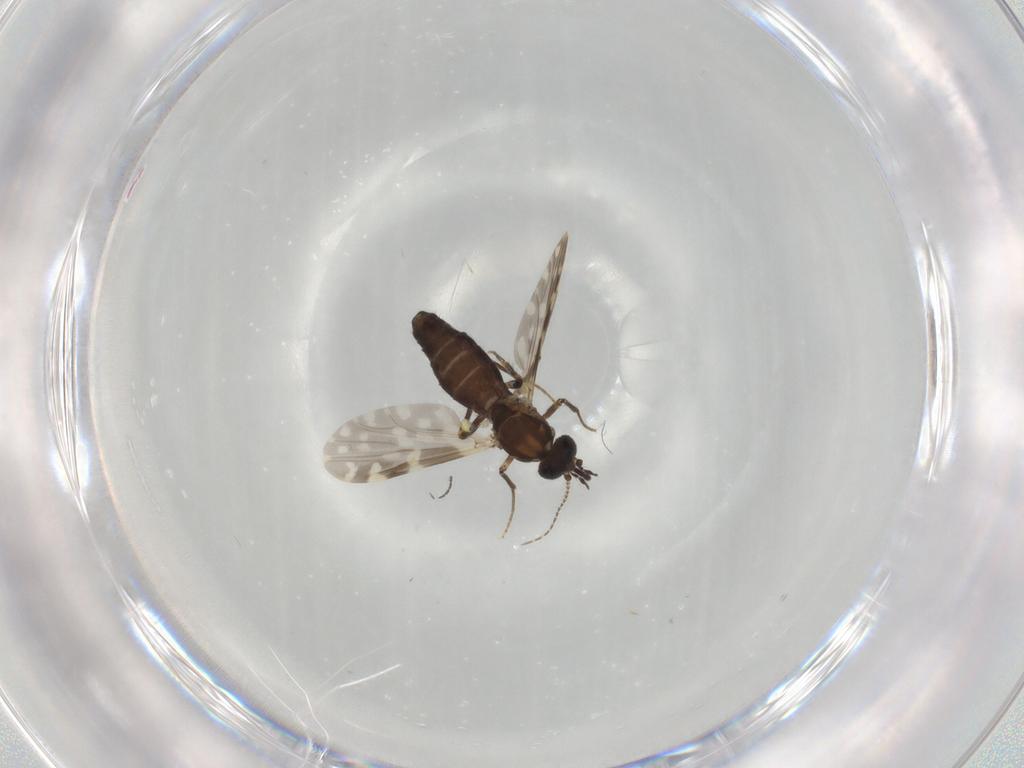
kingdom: Animalia
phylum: Arthropoda
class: Insecta
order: Diptera
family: Ceratopogonidae
